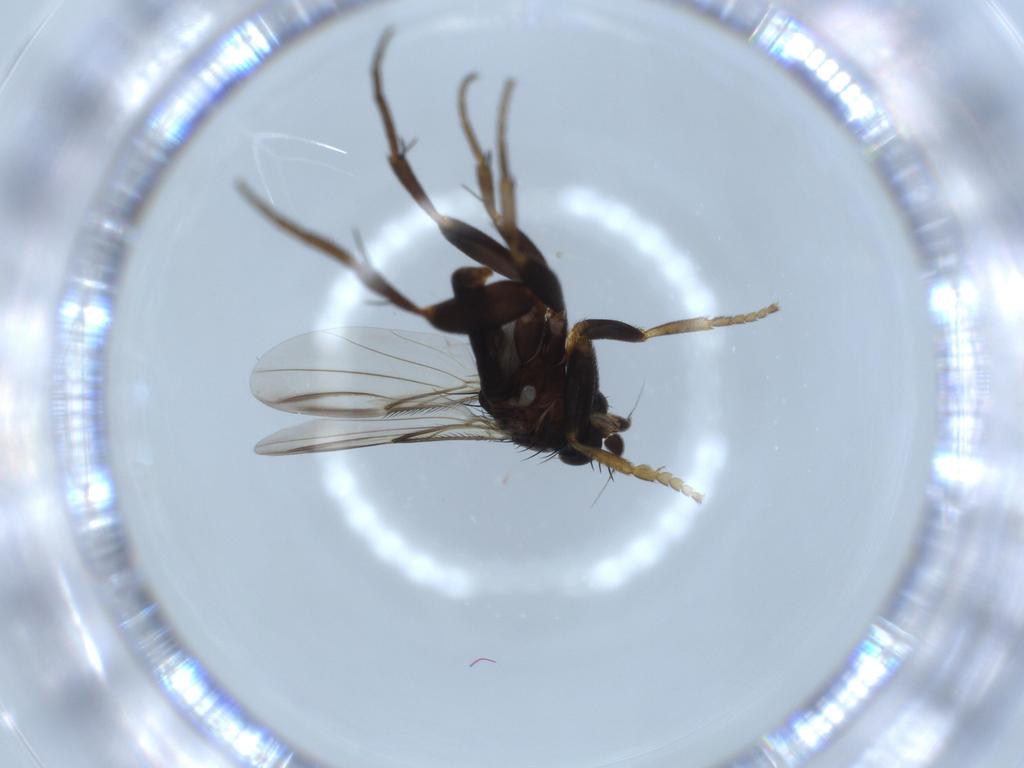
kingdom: Animalia
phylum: Arthropoda
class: Insecta
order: Diptera
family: Phoridae
